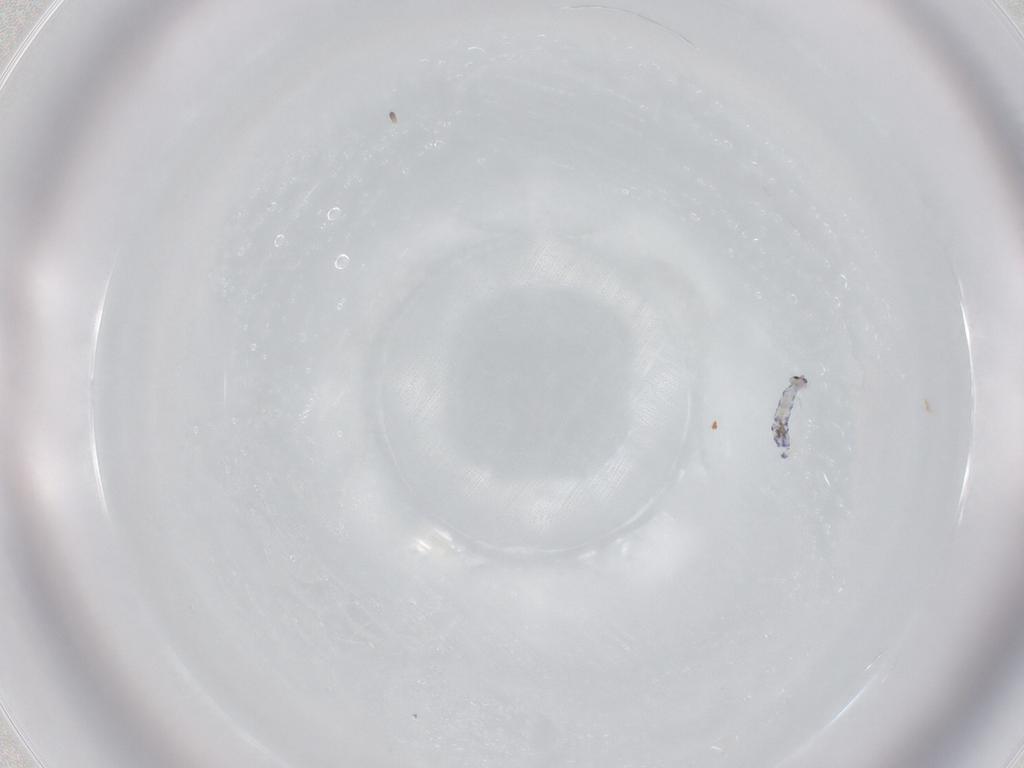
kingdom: Animalia
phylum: Arthropoda
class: Collembola
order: Entomobryomorpha
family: Entomobryidae
